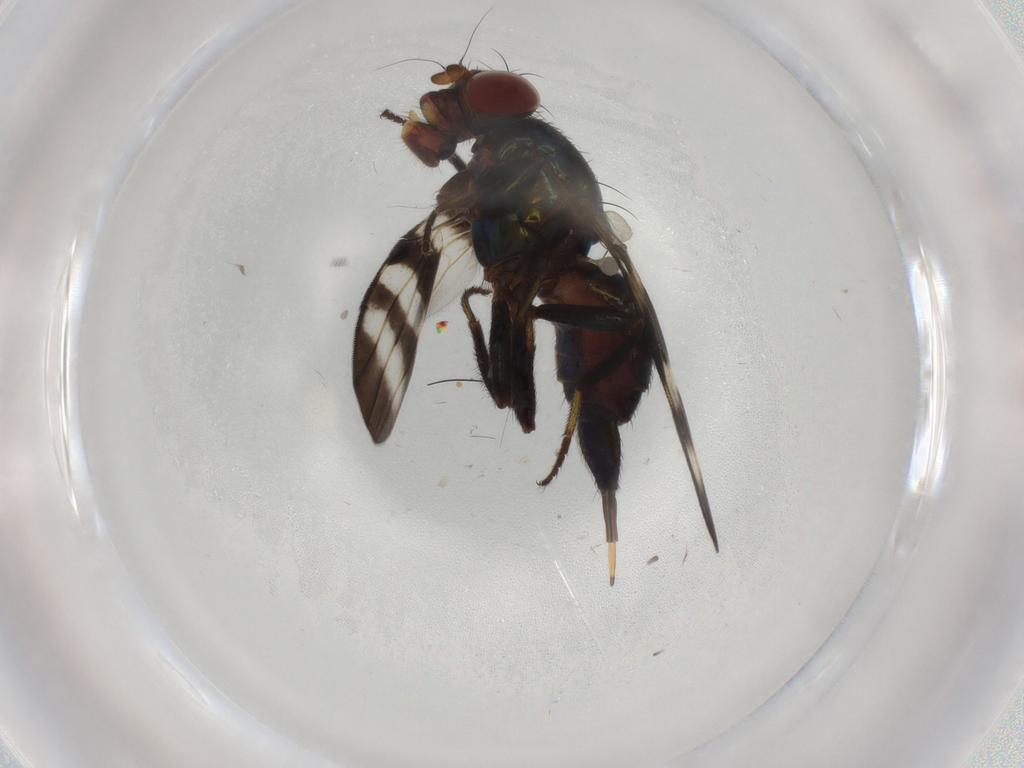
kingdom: Animalia
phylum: Arthropoda
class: Insecta
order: Diptera
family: Ulidiidae
